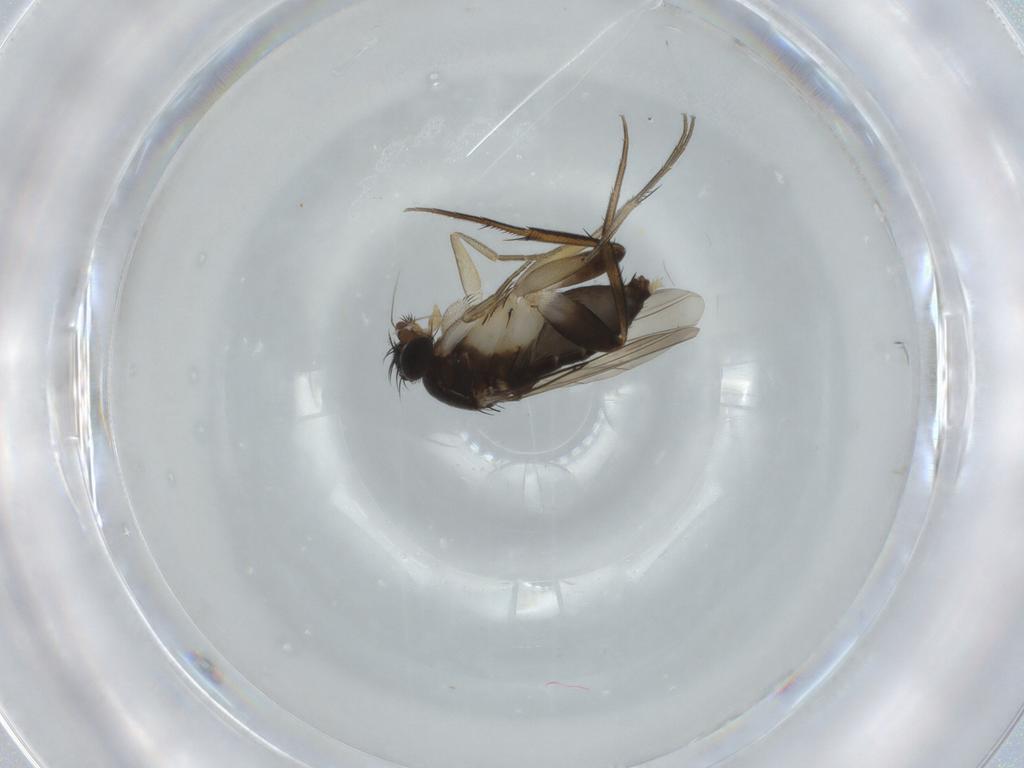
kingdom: Animalia
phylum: Arthropoda
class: Insecta
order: Diptera
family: Phoridae
